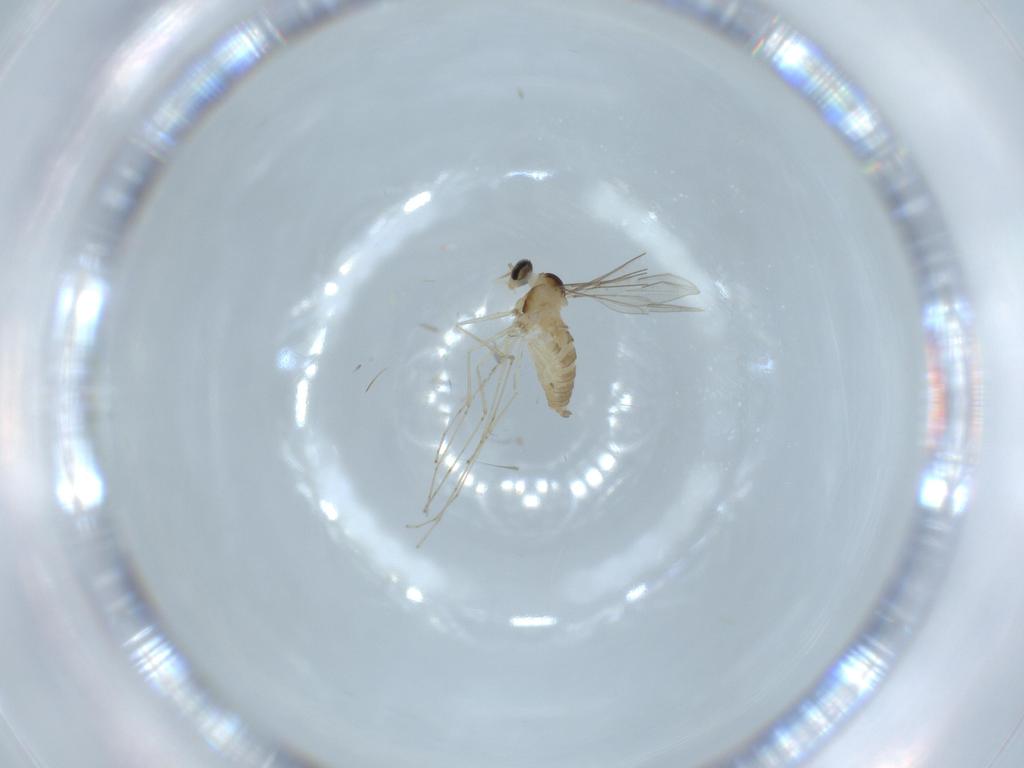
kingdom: Animalia
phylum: Arthropoda
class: Insecta
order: Diptera
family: Cecidomyiidae
